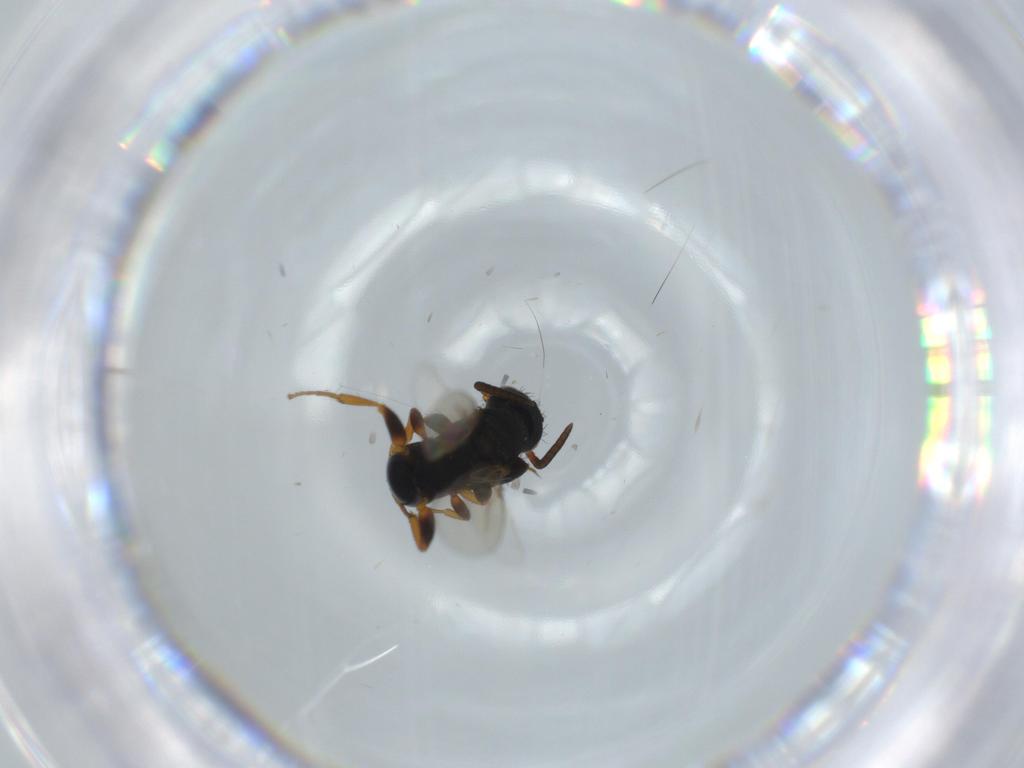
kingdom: Animalia
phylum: Arthropoda
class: Insecta
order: Hymenoptera
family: Bethylidae
